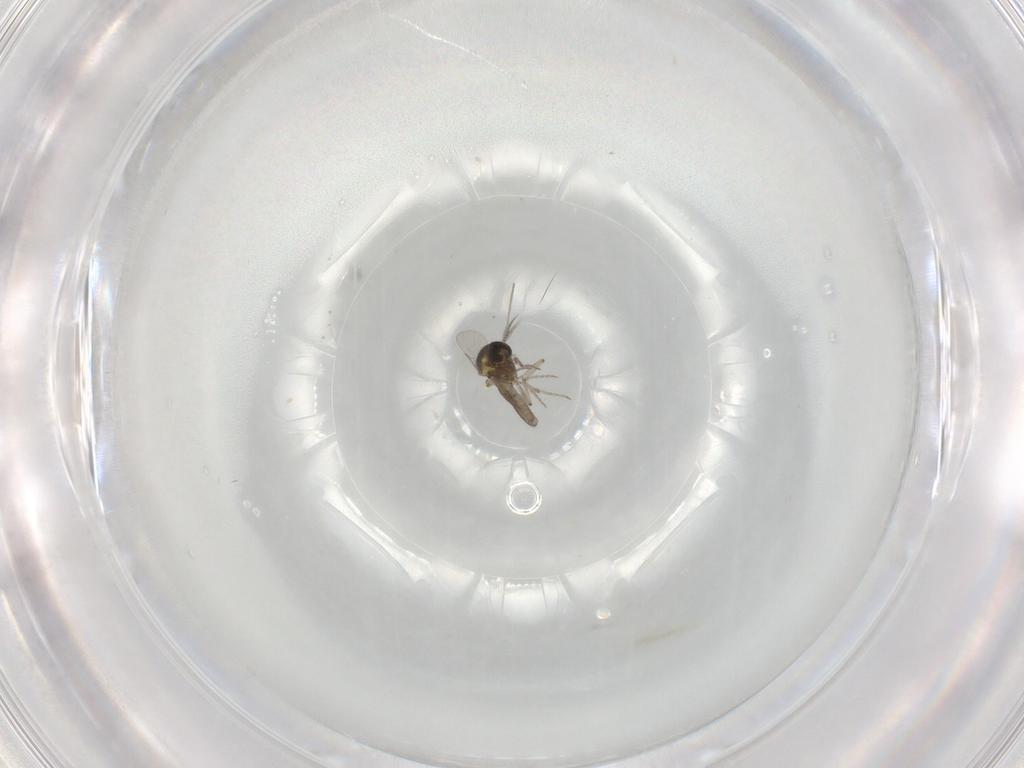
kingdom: Animalia
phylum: Arthropoda
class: Insecta
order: Diptera
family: Ceratopogonidae
